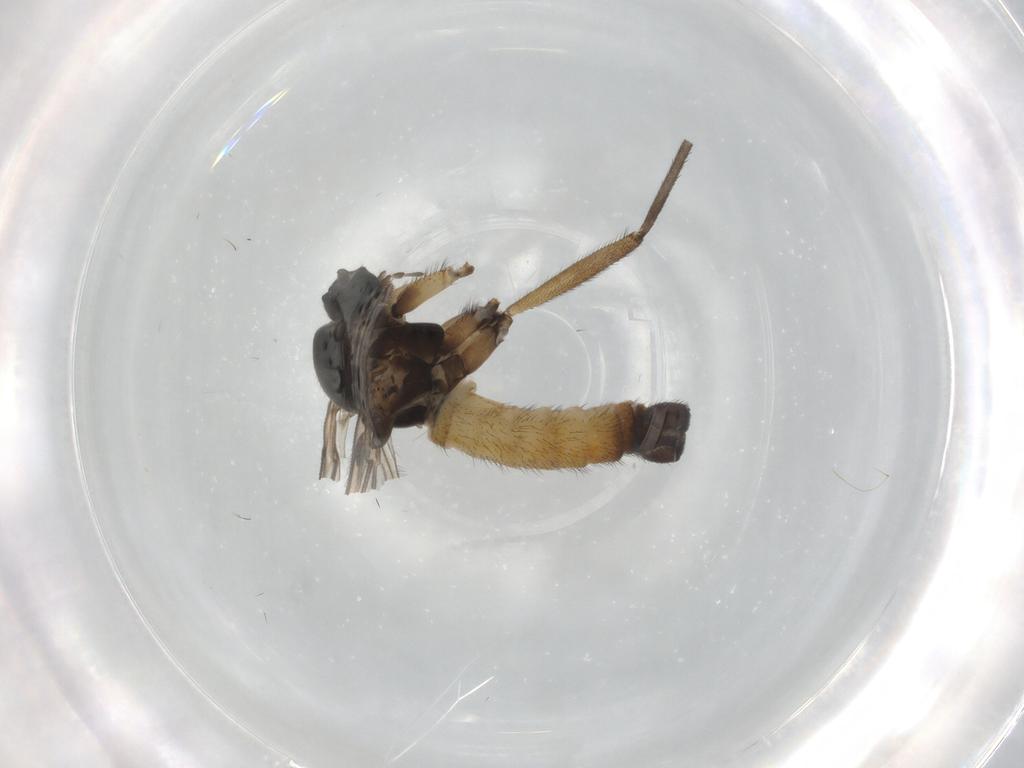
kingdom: Animalia
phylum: Arthropoda
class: Insecta
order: Diptera
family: Sciaridae
